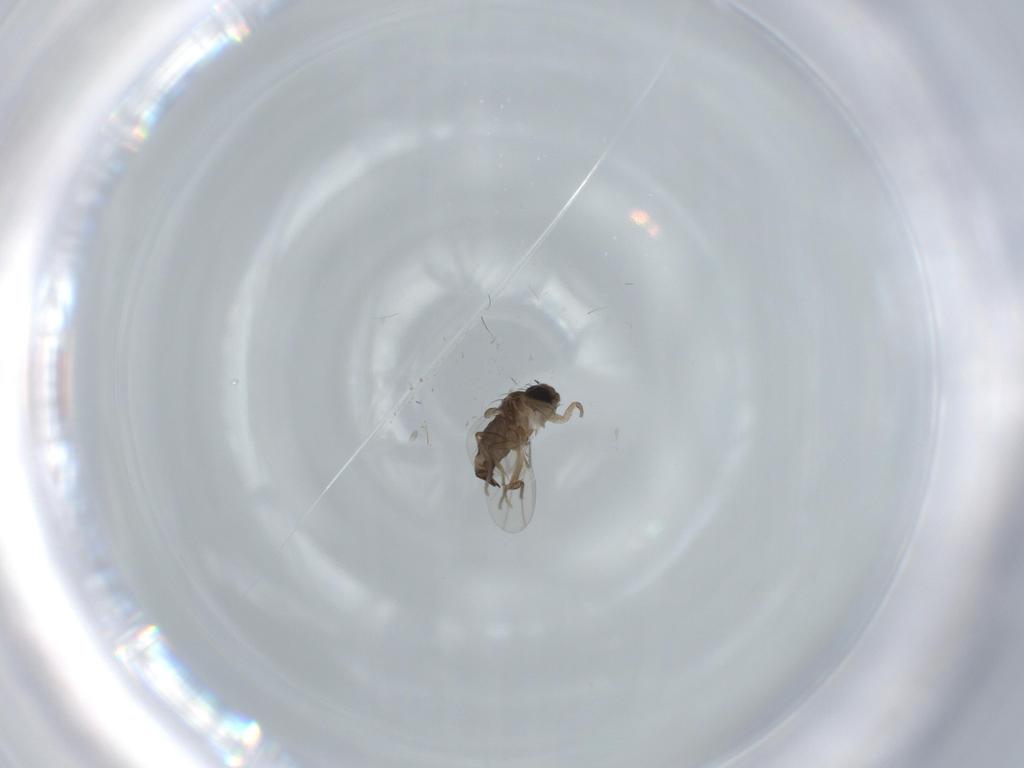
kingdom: Animalia
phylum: Arthropoda
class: Insecta
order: Diptera
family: Phoridae
